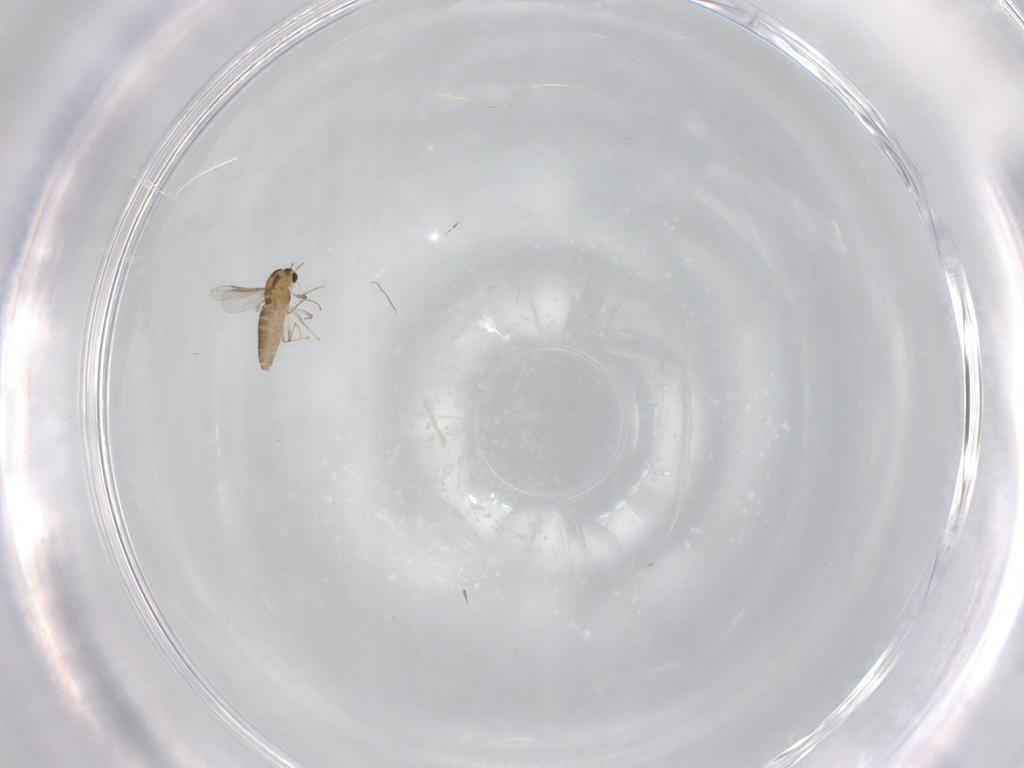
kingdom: Animalia
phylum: Arthropoda
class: Insecta
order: Diptera
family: Chironomidae
